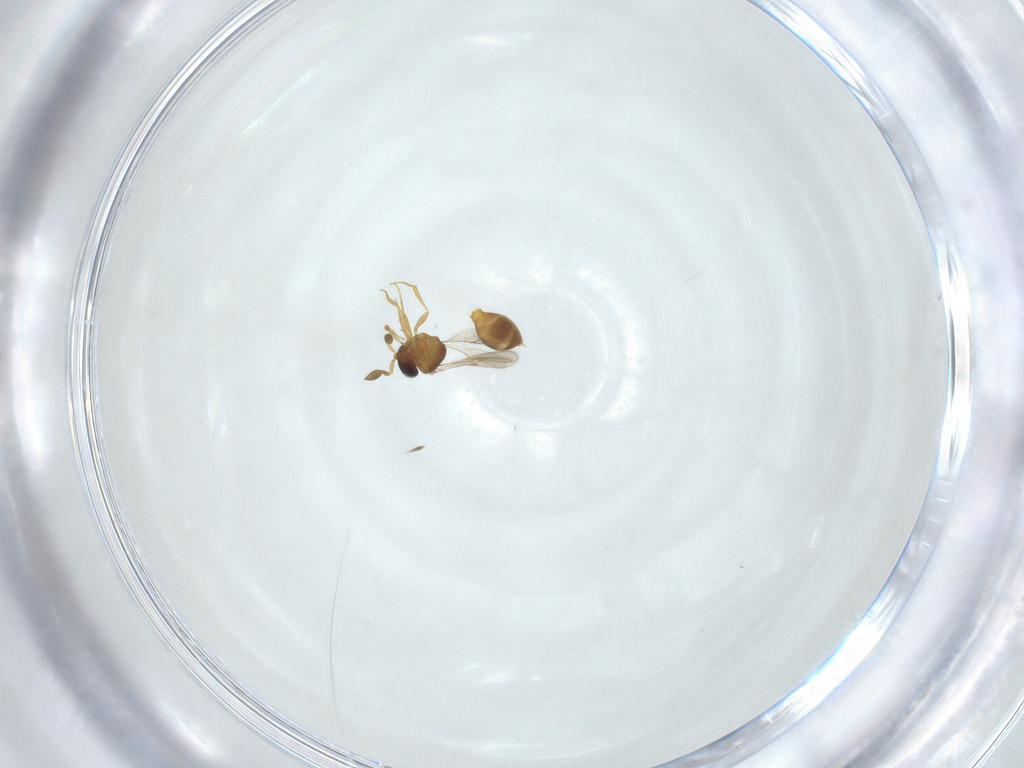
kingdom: Animalia
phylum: Arthropoda
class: Insecta
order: Hymenoptera
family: Scelionidae
